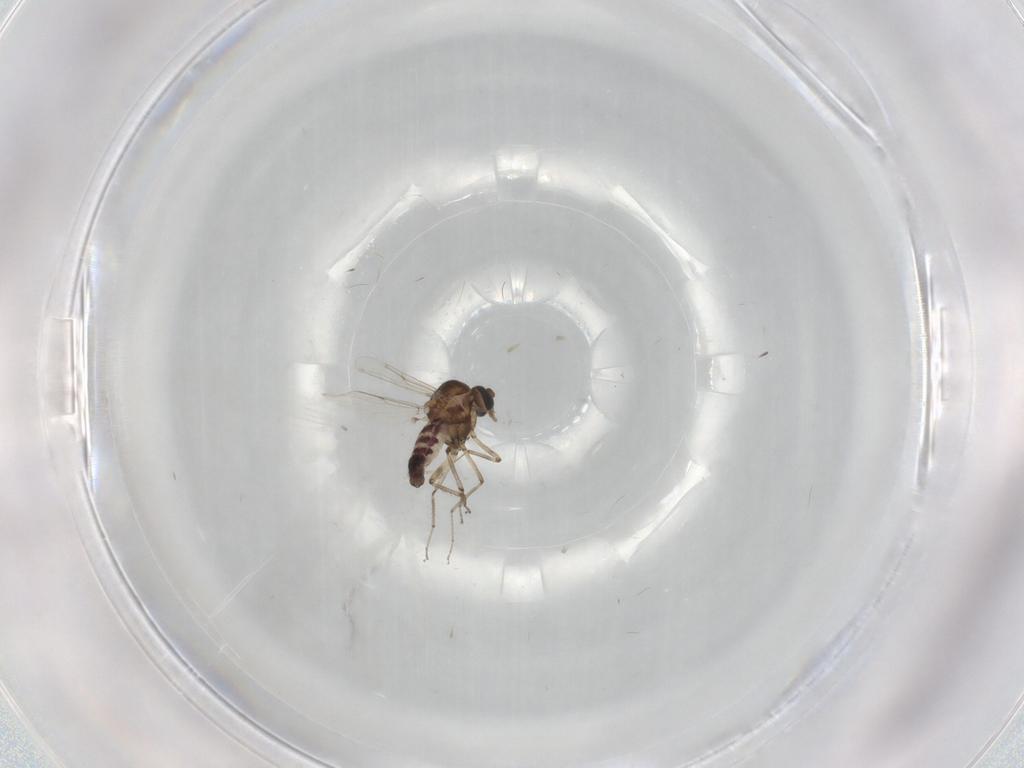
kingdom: Animalia
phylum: Arthropoda
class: Insecta
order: Diptera
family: Ceratopogonidae
